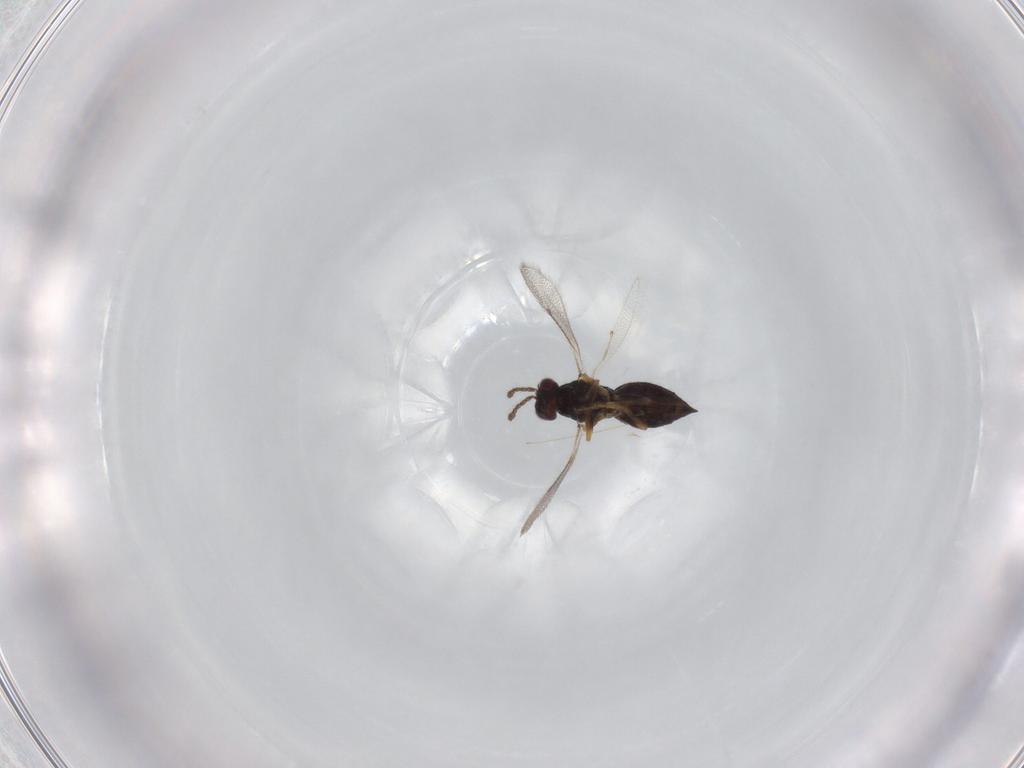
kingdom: Animalia
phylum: Arthropoda
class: Insecta
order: Hymenoptera
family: Eulophidae
